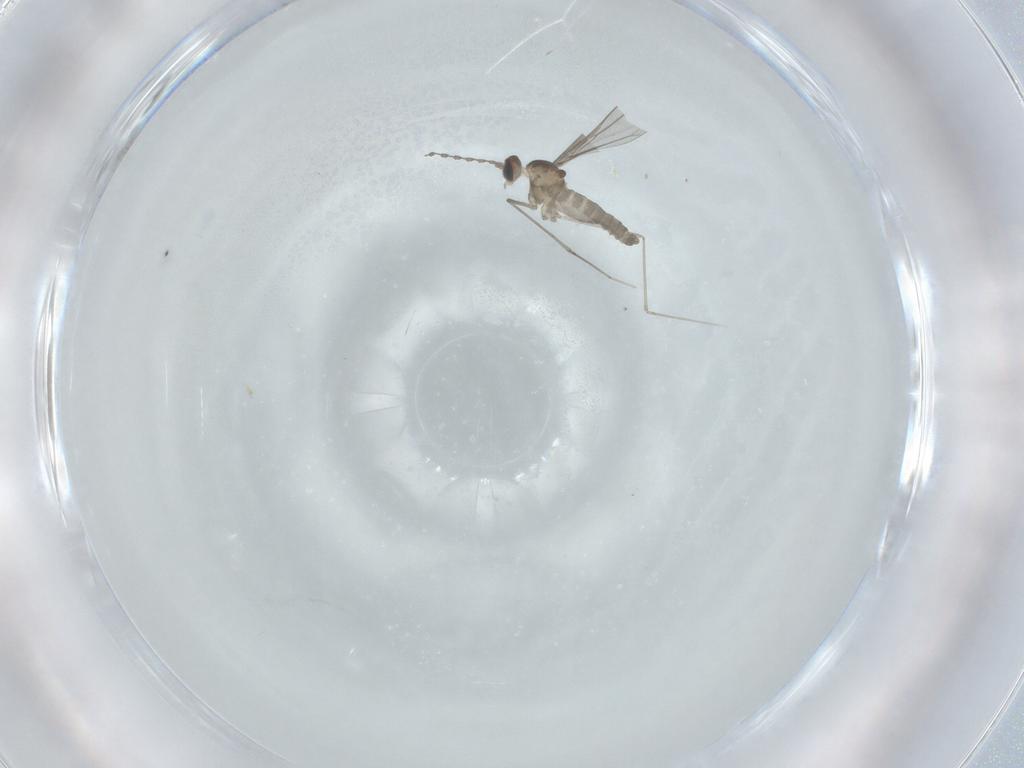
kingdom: Animalia
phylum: Arthropoda
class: Insecta
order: Diptera
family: Cecidomyiidae
